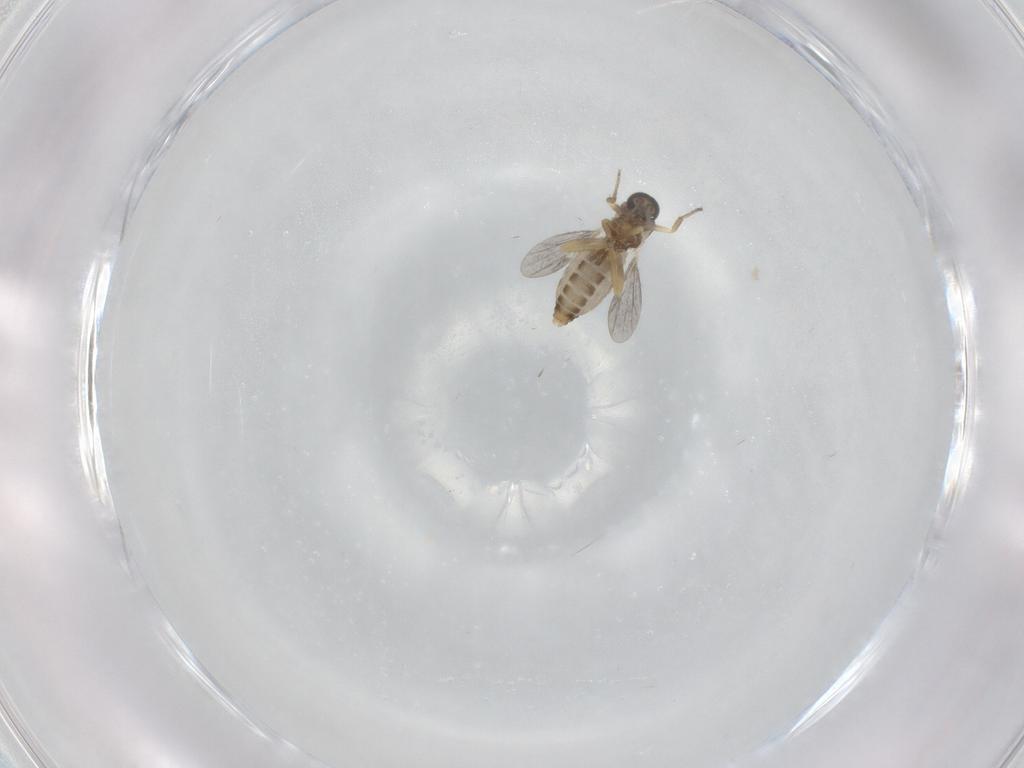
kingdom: Animalia
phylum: Arthropoda
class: Insecta
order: Diptera
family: Ceratopogonidae
